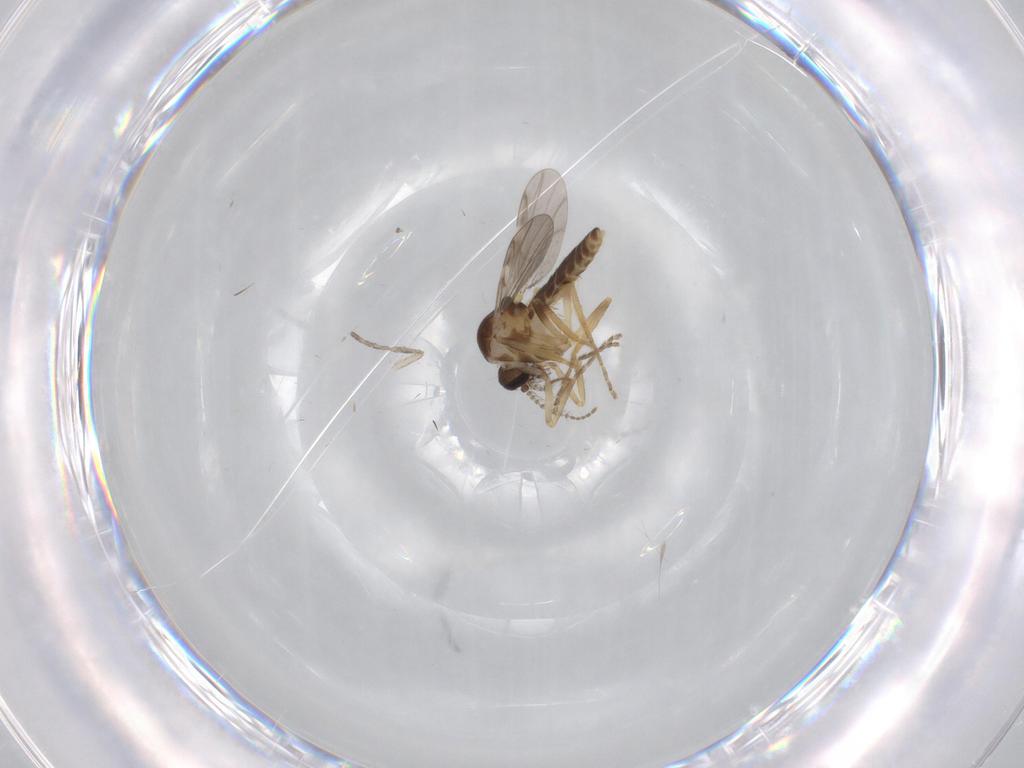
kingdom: Animalia
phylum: Arthropoda
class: Insecta
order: Diptera
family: Ceratopogonidae
